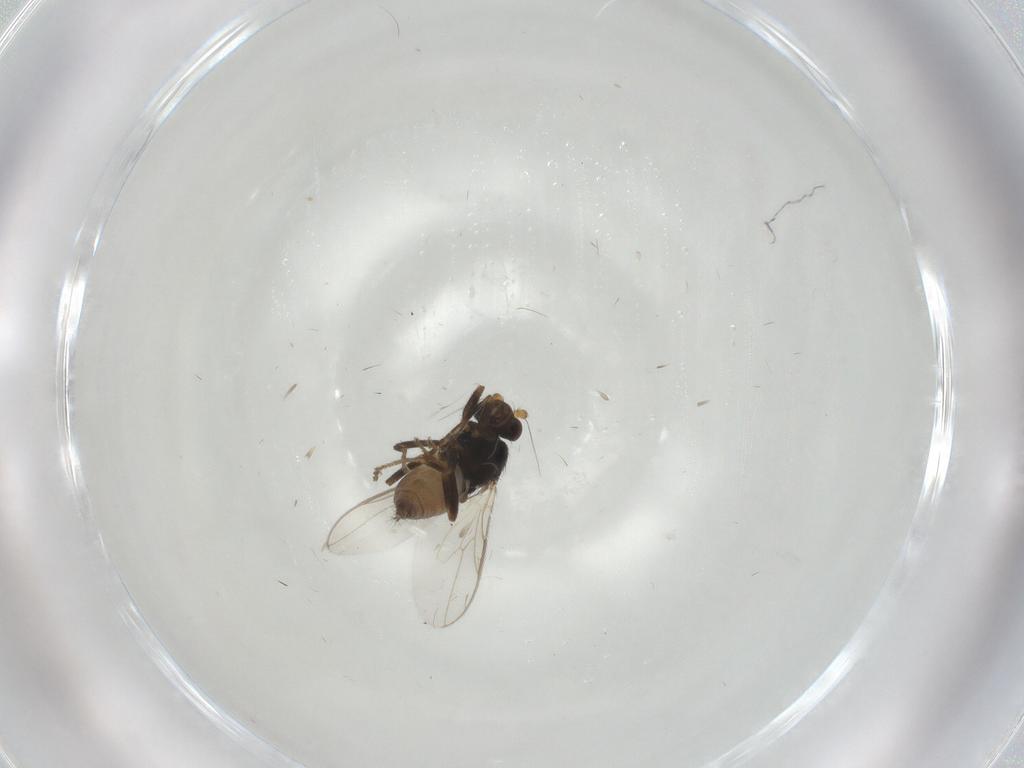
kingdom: Animalia
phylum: Arthropoda
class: Insecta
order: Diptera
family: Sphaeroceridae
